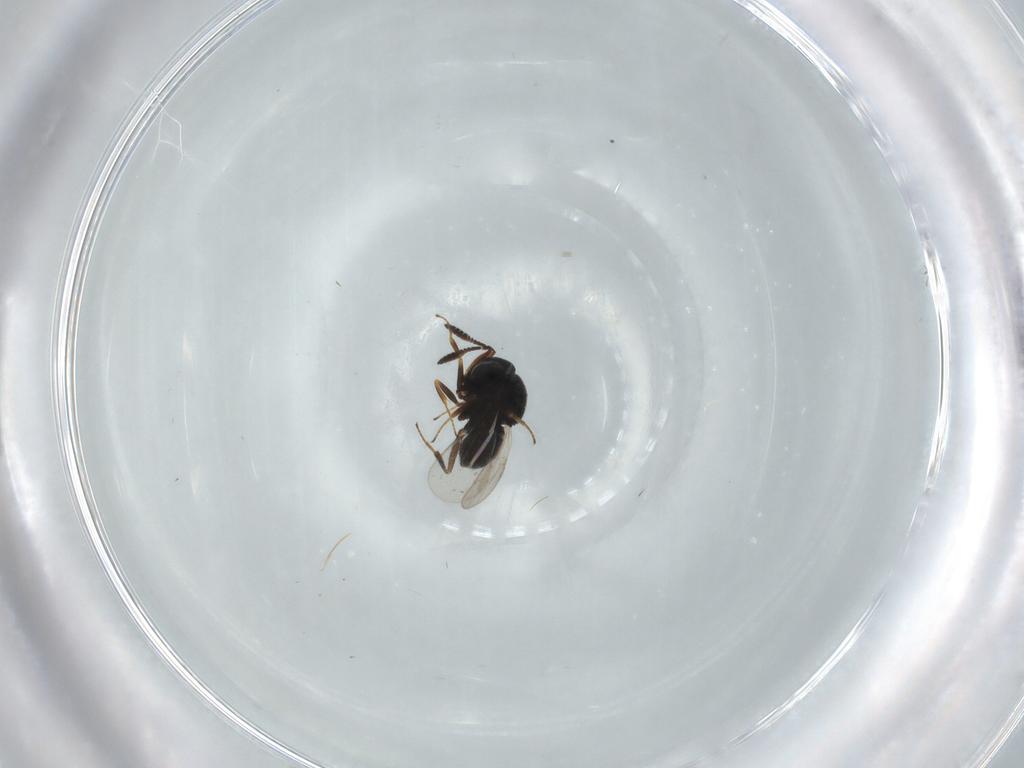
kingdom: Animalia
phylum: Arthropoda
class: Insecta
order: Hymenoptera
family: Scelionidae
